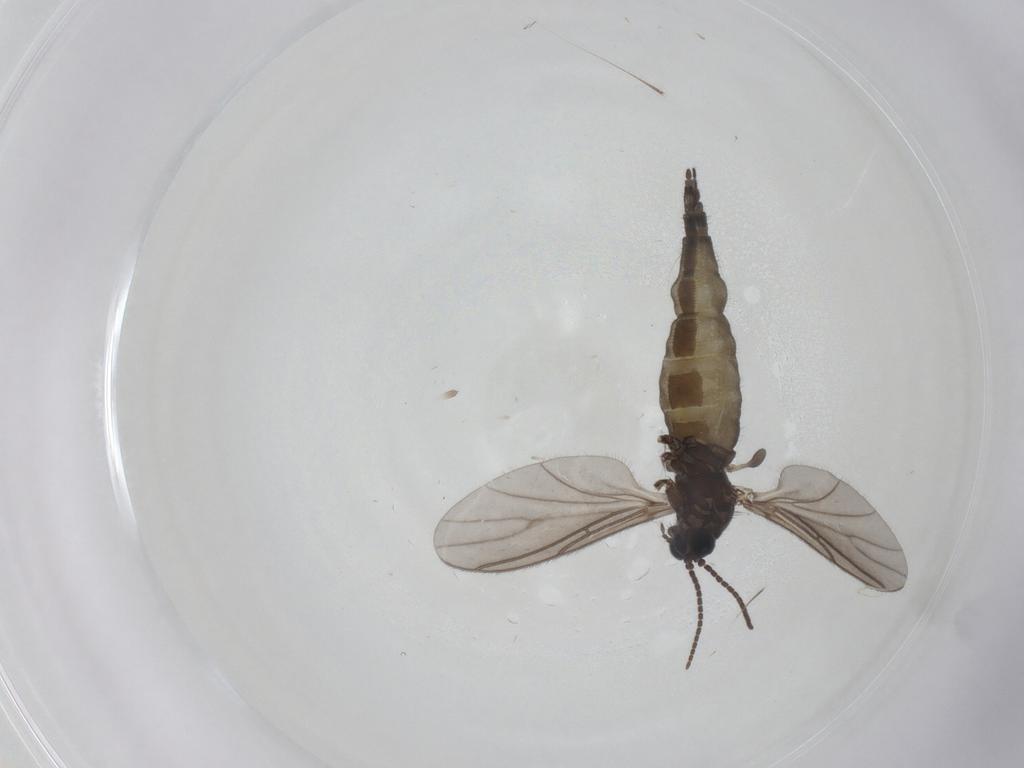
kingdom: Animalia
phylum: Arthropoda
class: Insecta
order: Diptera
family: Sciaridae
